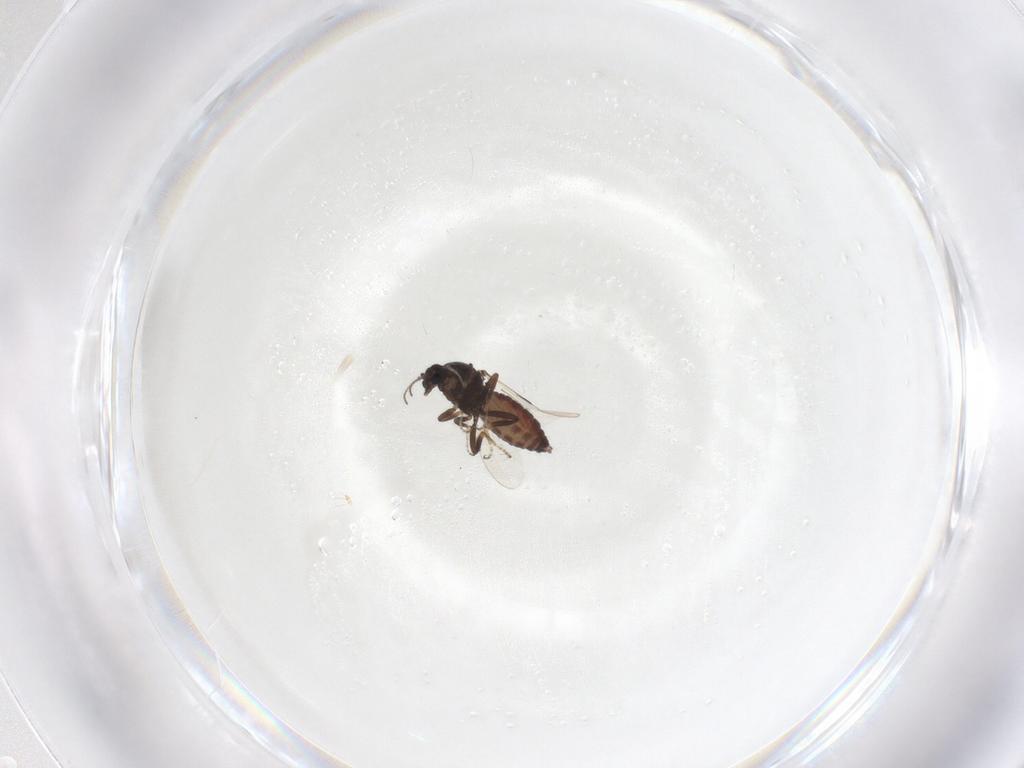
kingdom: Animalia
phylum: Arthropoda
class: Insecta
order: Diptera
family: Ceratopogonidae
